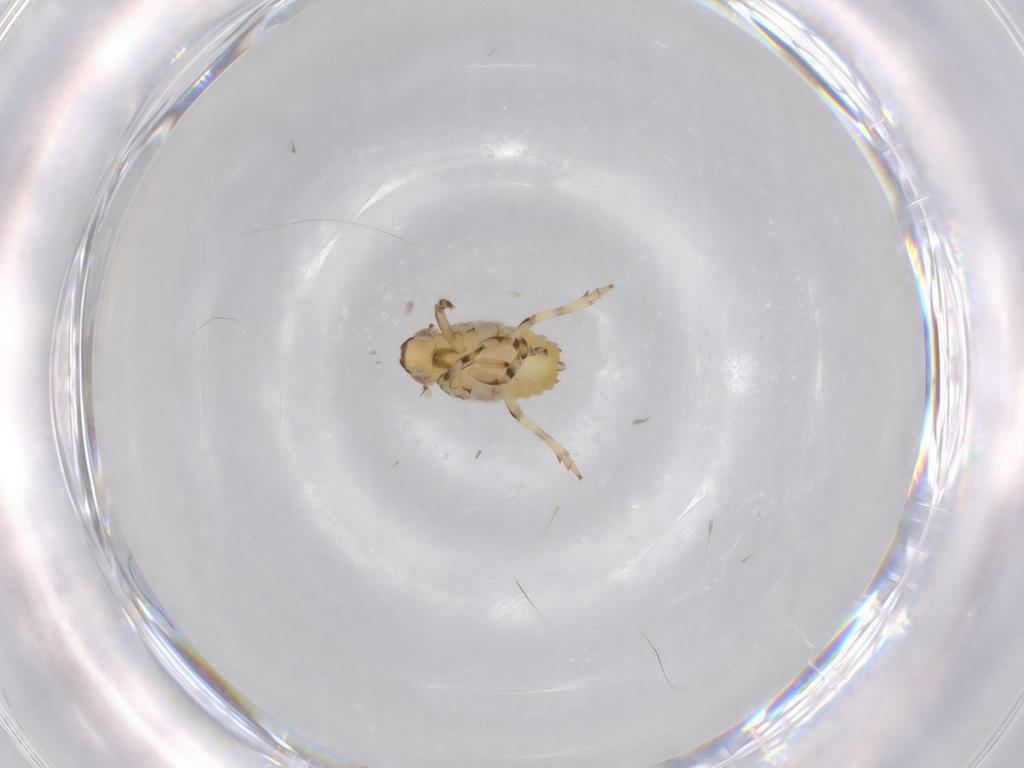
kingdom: Animalia
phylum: Arthropoda
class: Insecta
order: Hemiptera
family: Issidae
